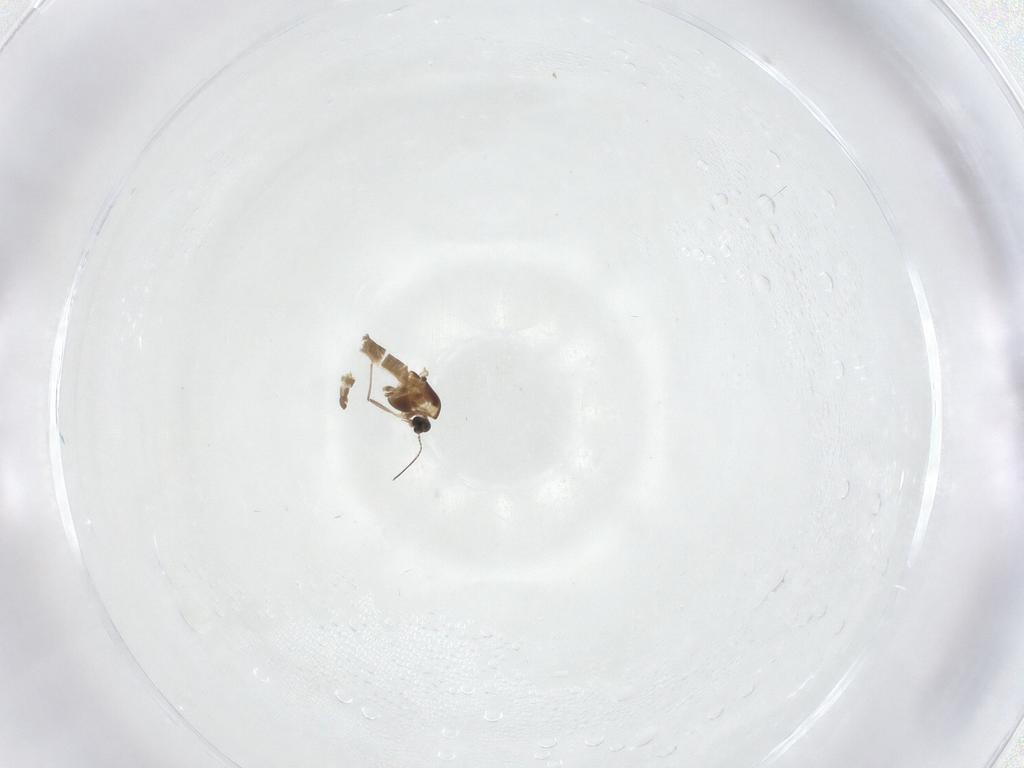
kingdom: Animalia
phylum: Arthropoda
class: Insecta
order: Diptera
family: Chironomidae
